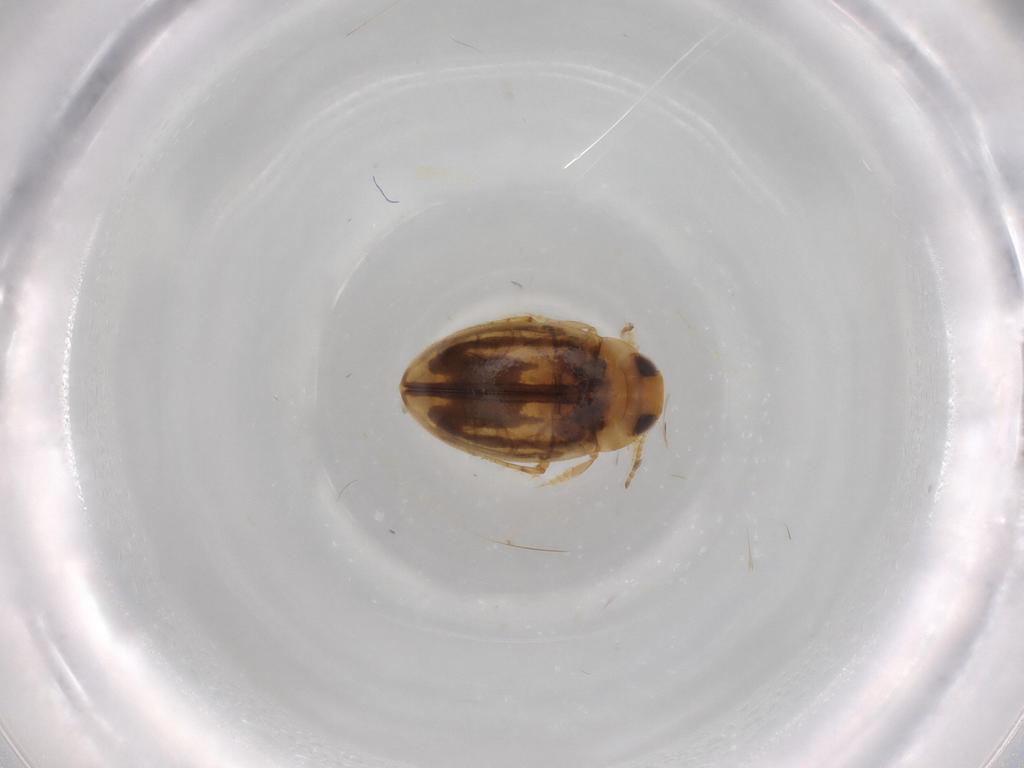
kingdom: Animalia
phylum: Arthropoda
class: Insecta
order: Coleoptera
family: Dytiscidae
